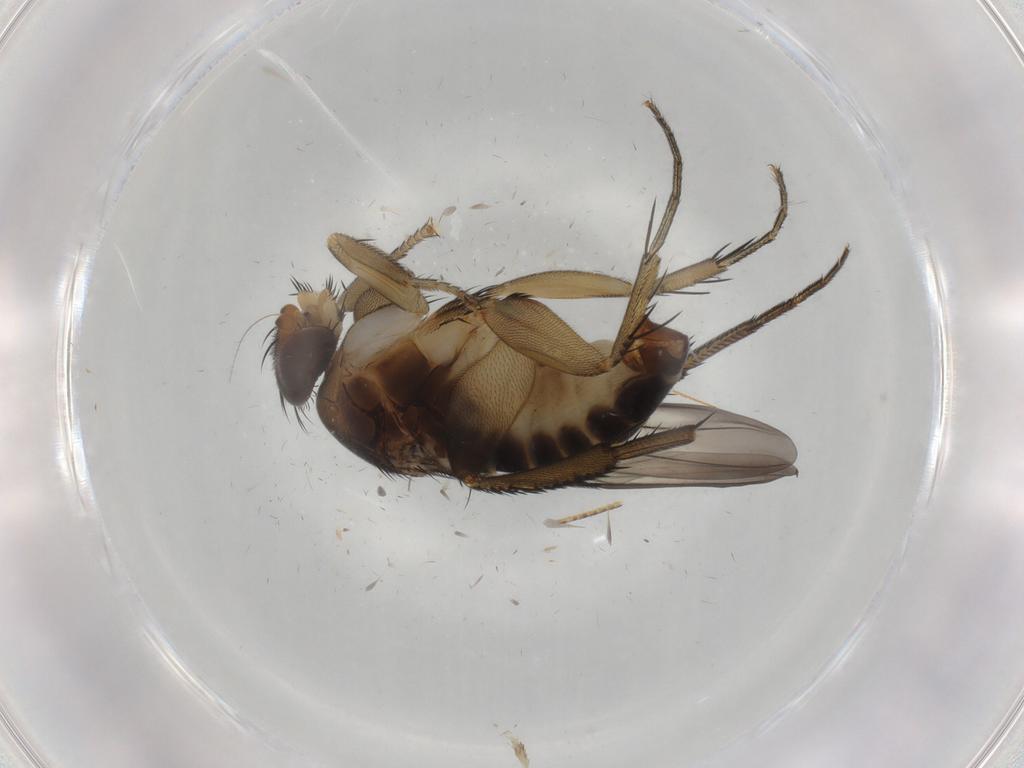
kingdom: Animalia
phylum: Arthropoda
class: Insecta
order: Diptera
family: Phoridae
